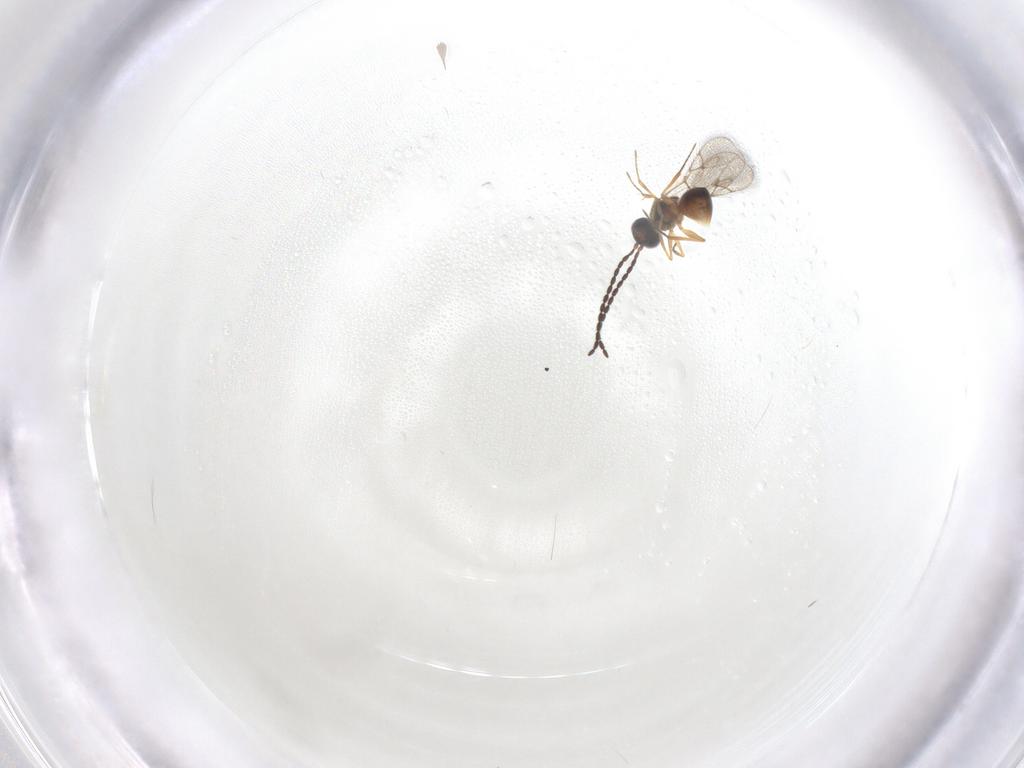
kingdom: Animalia
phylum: Arthropoda
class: Insecta
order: Hymenoptera
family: Figitidae
